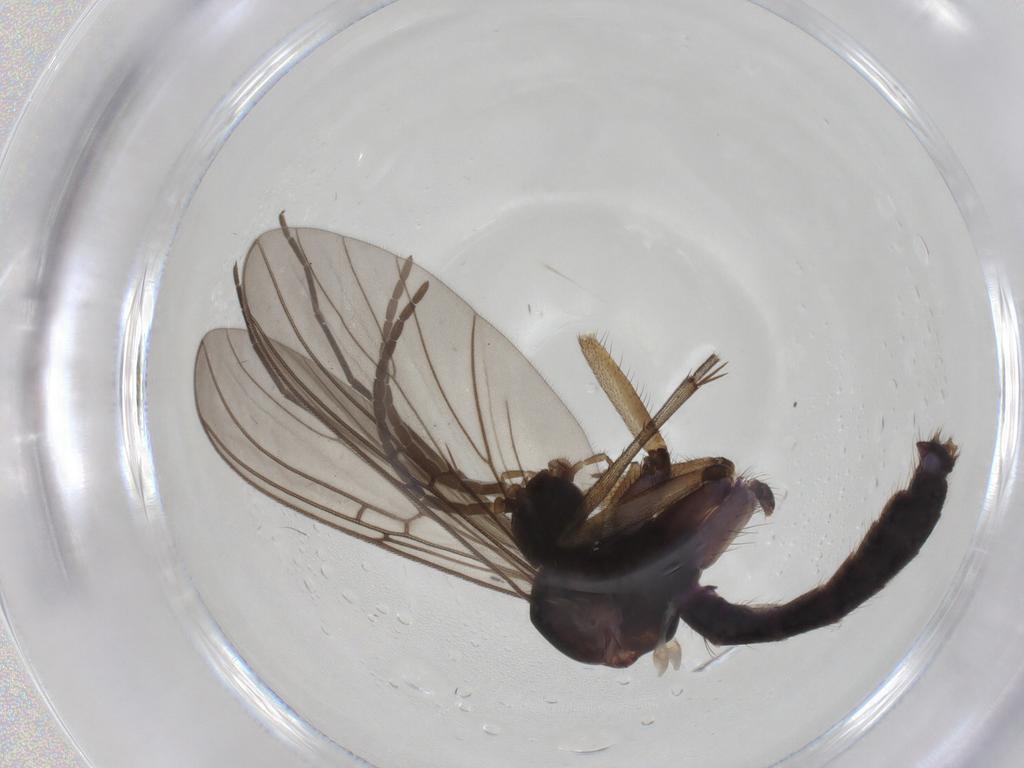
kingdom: Animalia
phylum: Arthropoda
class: Insecta
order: Diptera
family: Mycetophilidae
